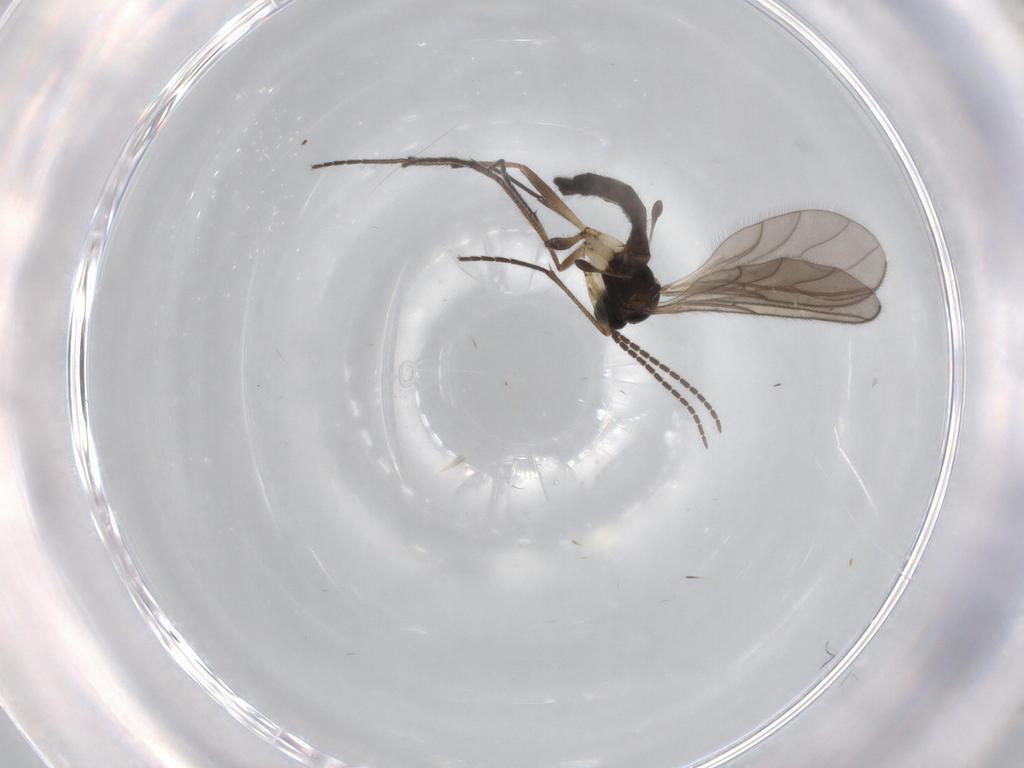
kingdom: Animalia
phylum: Arthropoda
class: Insecta
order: Diptera
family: Sciaridae
